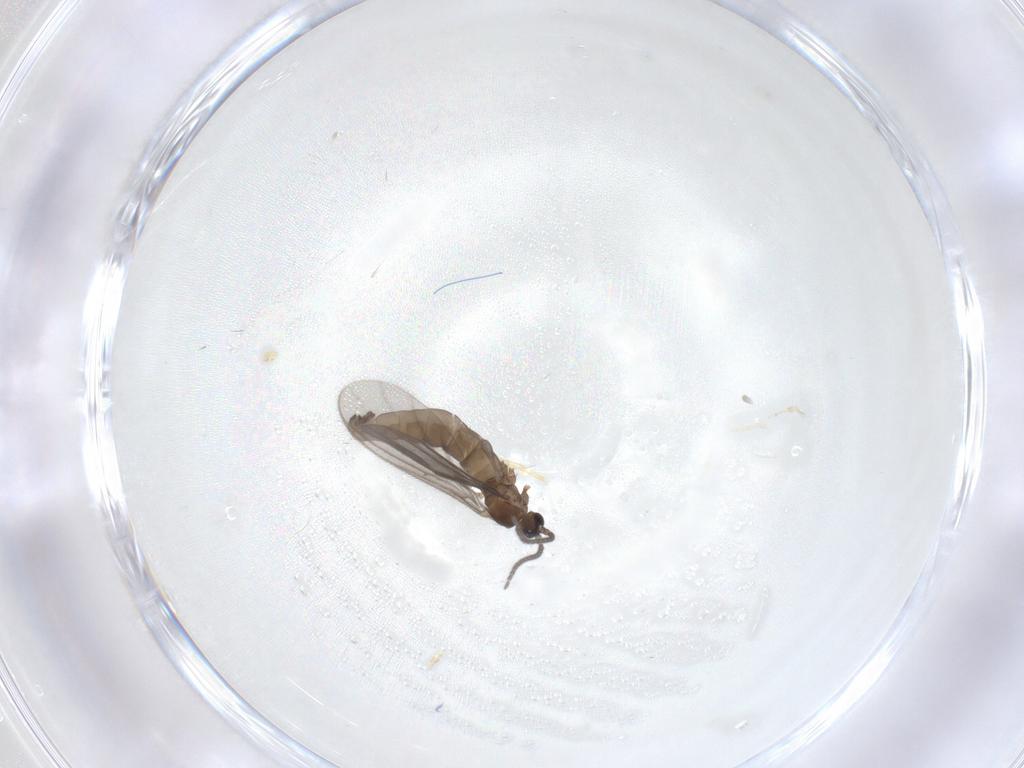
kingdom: Animalia
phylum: Arthropoda
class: Insecta
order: Diptera
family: Sciaridae
